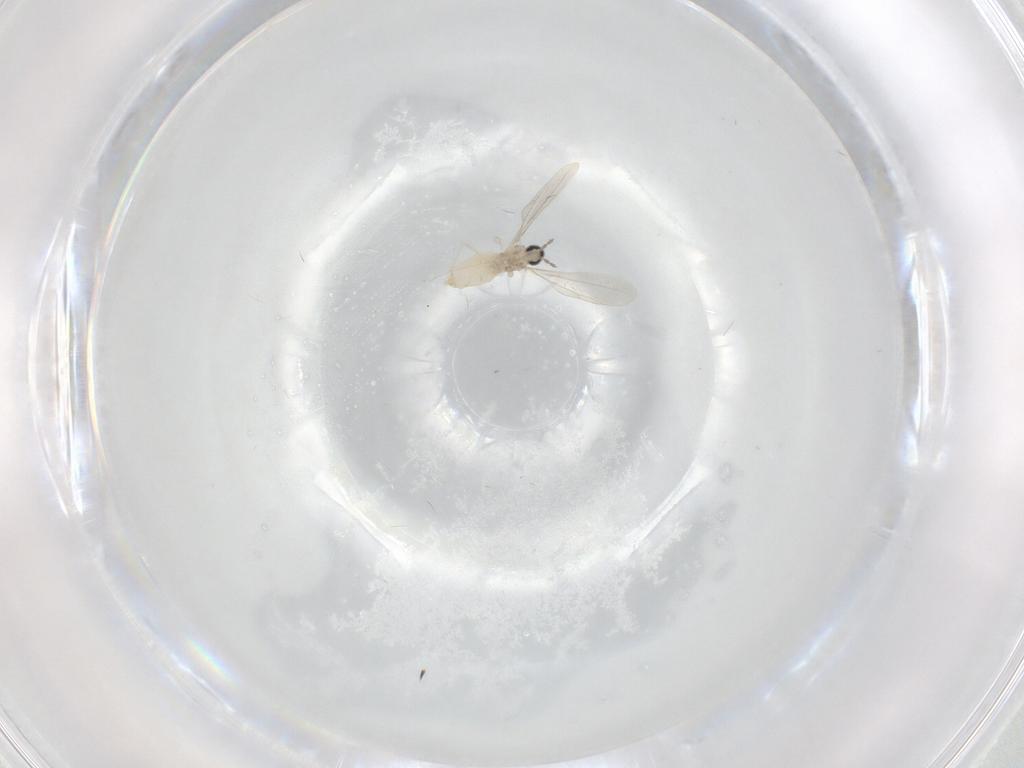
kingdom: Animalia
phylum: Arthropoda
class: Insecta
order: Diptera
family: Cecidomyiidae
